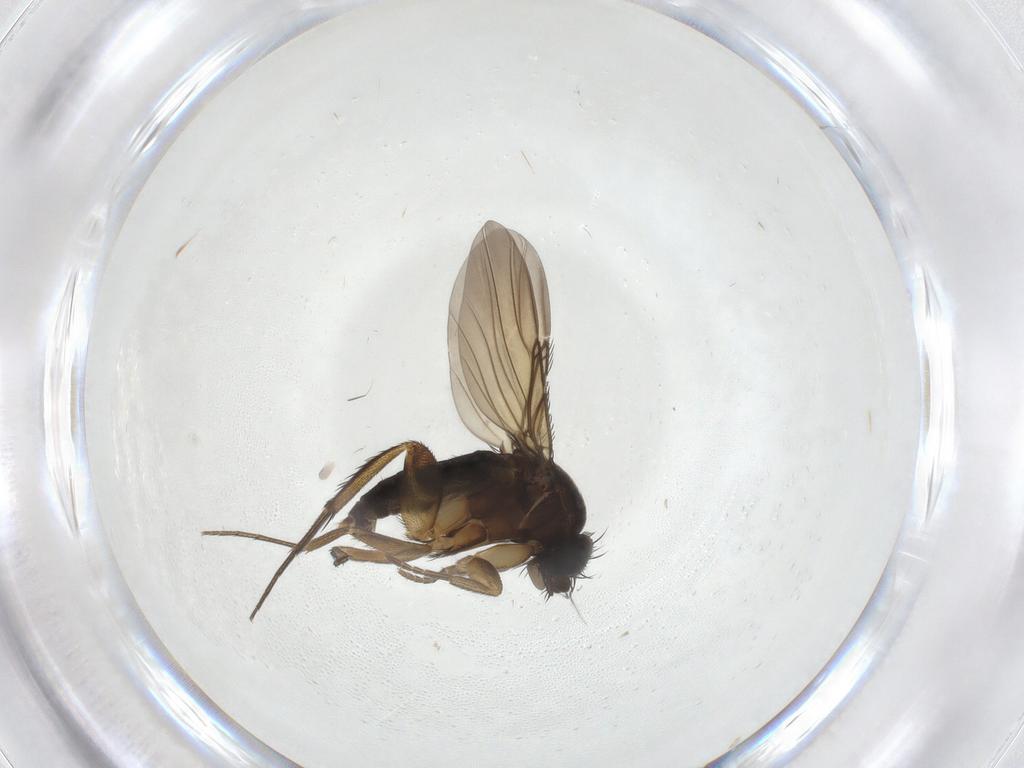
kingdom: Animalia
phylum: Arthropoda
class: Insecta
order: Diptera
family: Phoridae
